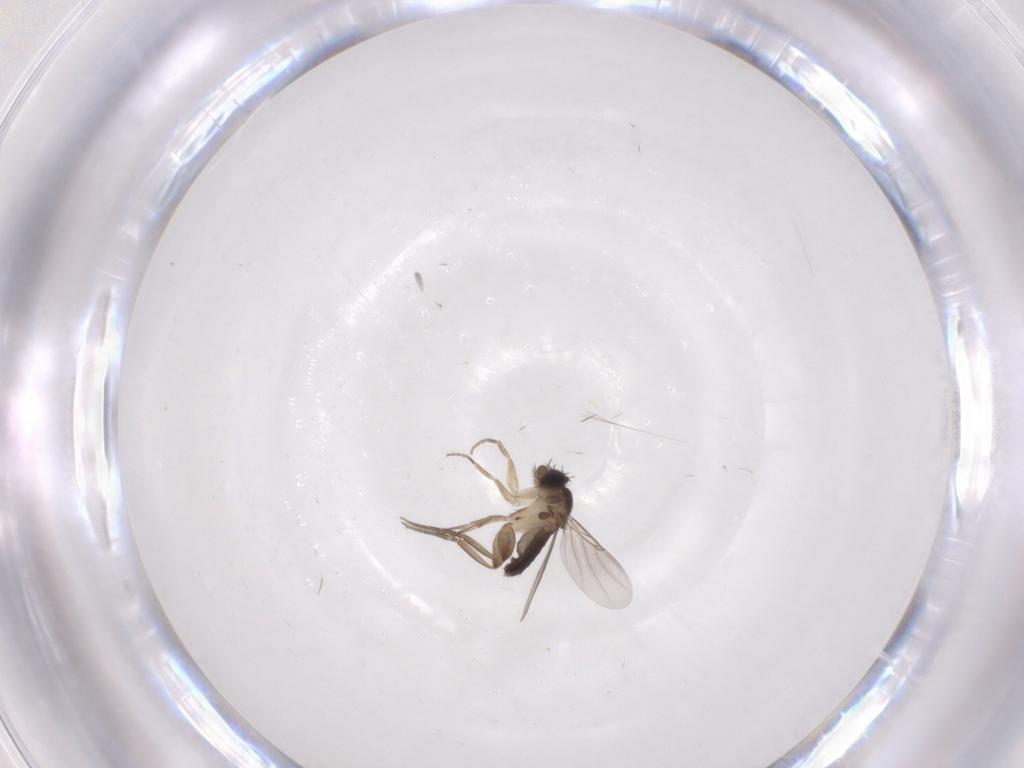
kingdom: Animalia
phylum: Arthropoda
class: Insecta
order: Diptera
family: Phoridae
